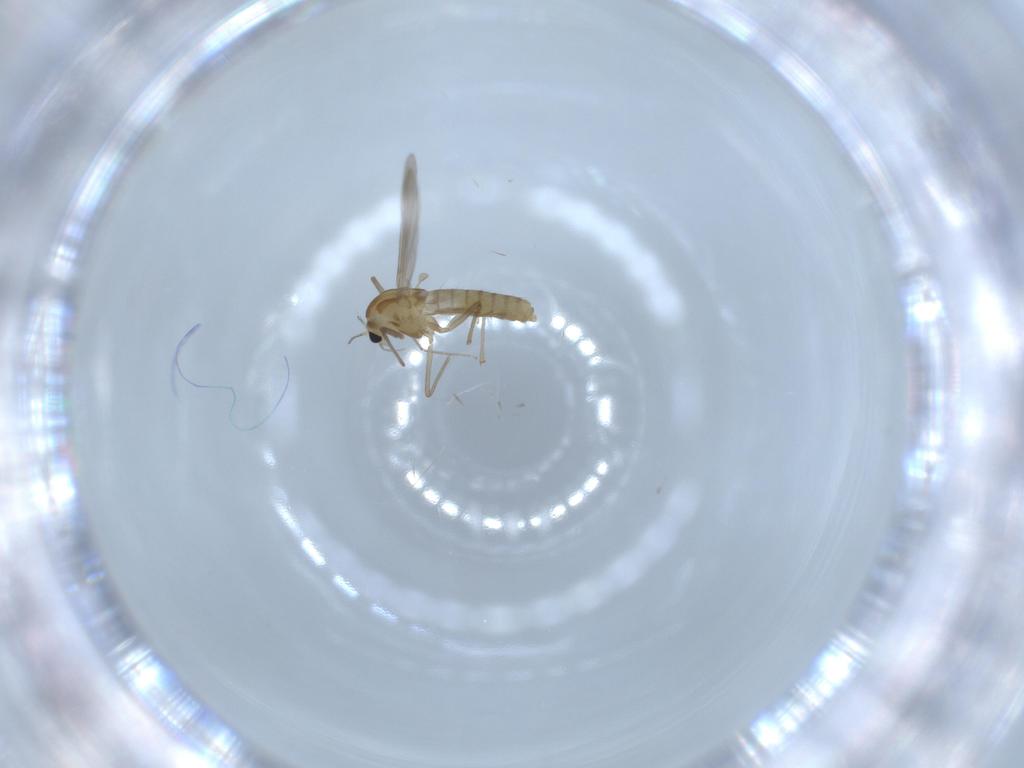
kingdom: Animalia
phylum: Arthropoda
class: Insecta
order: Diptera
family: Chironomidae
